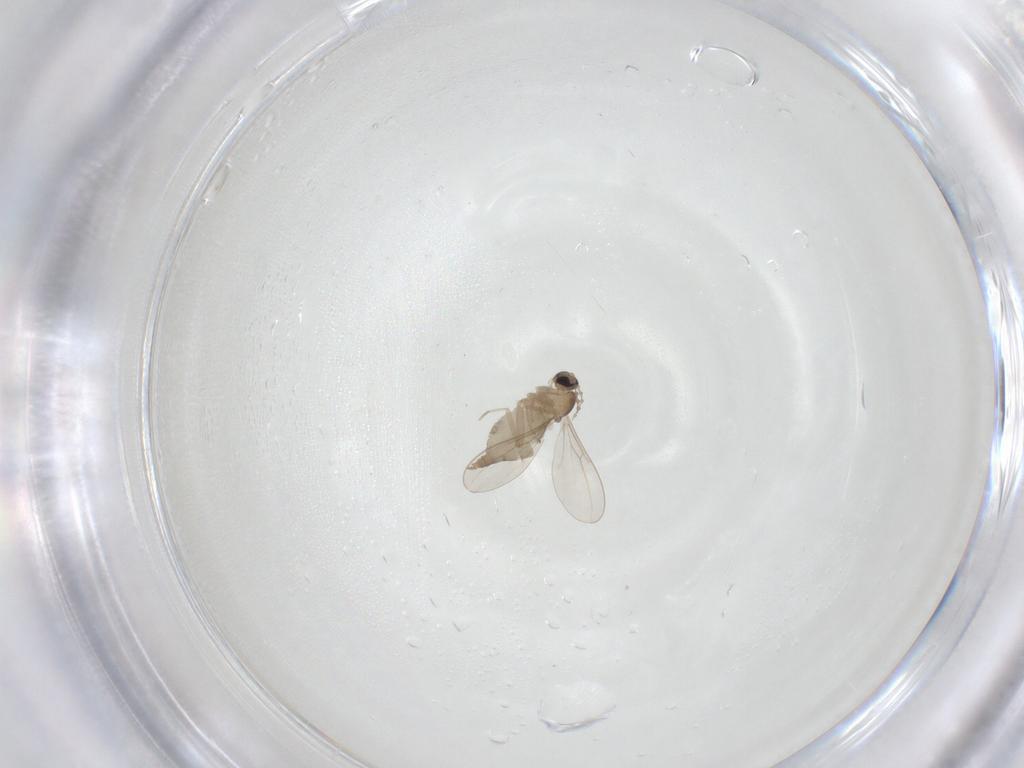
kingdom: Animalia
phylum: Arthropoda
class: Insecta
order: Diptera
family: Cecidomyiidae
